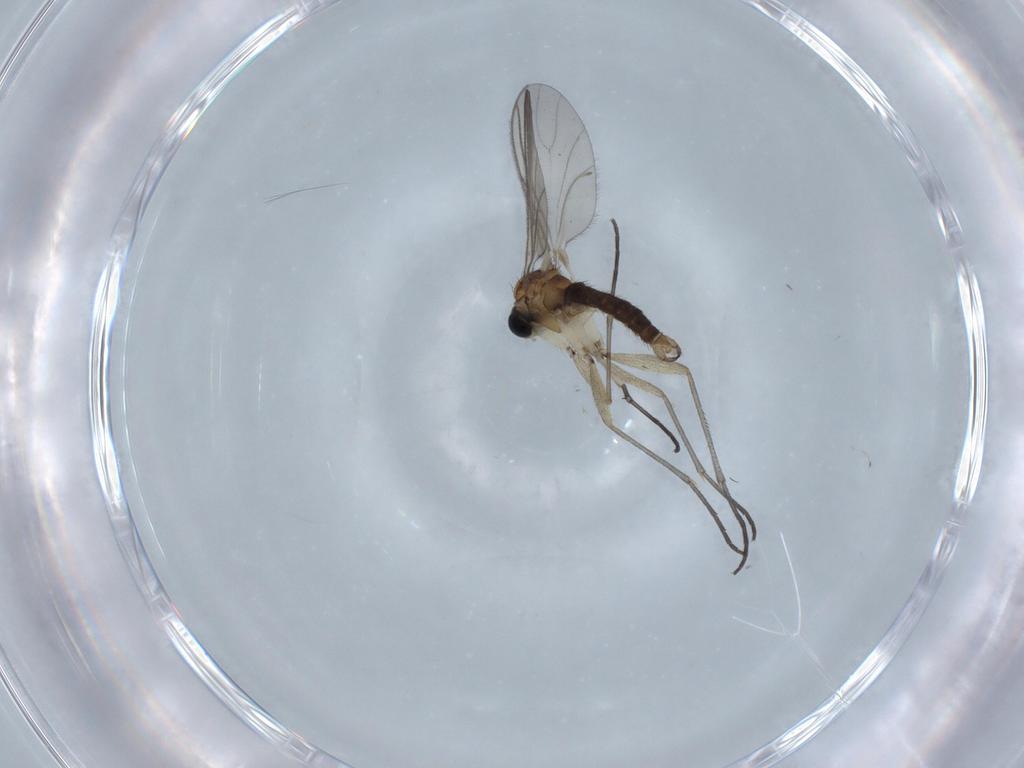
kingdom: Animalia
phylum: Arthropoda
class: Insecta
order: Diptera
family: Sciaridae
